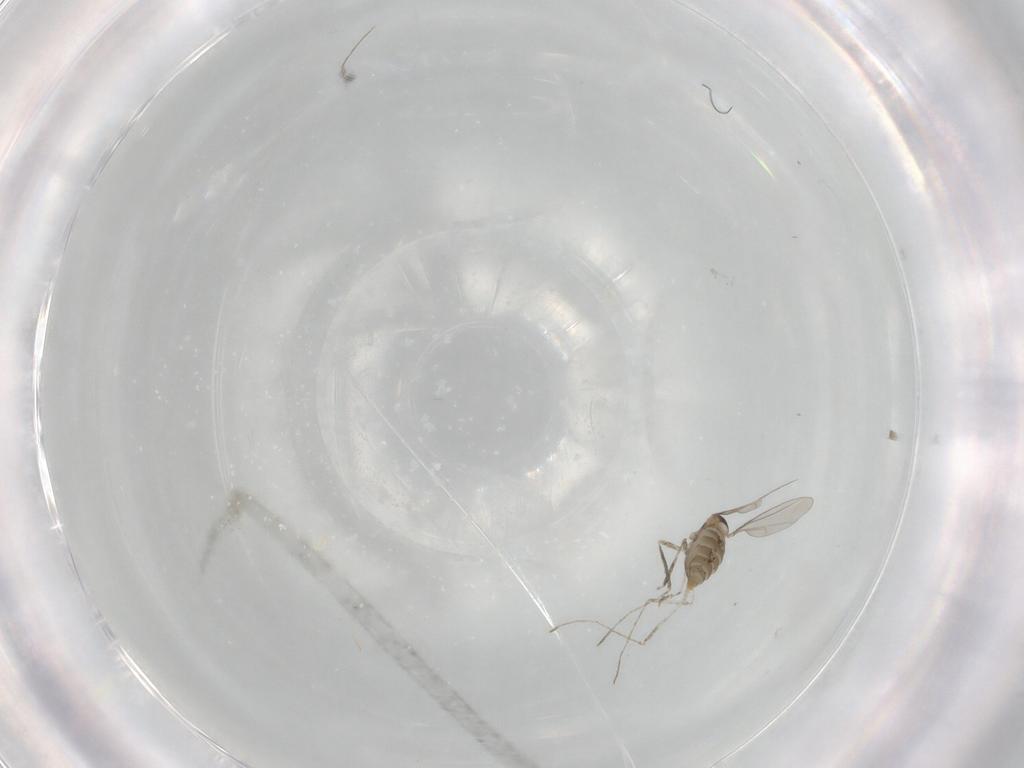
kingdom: Animalia
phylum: Arthropoda
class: Insecta
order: Diptera
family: Cecidomyiidae
